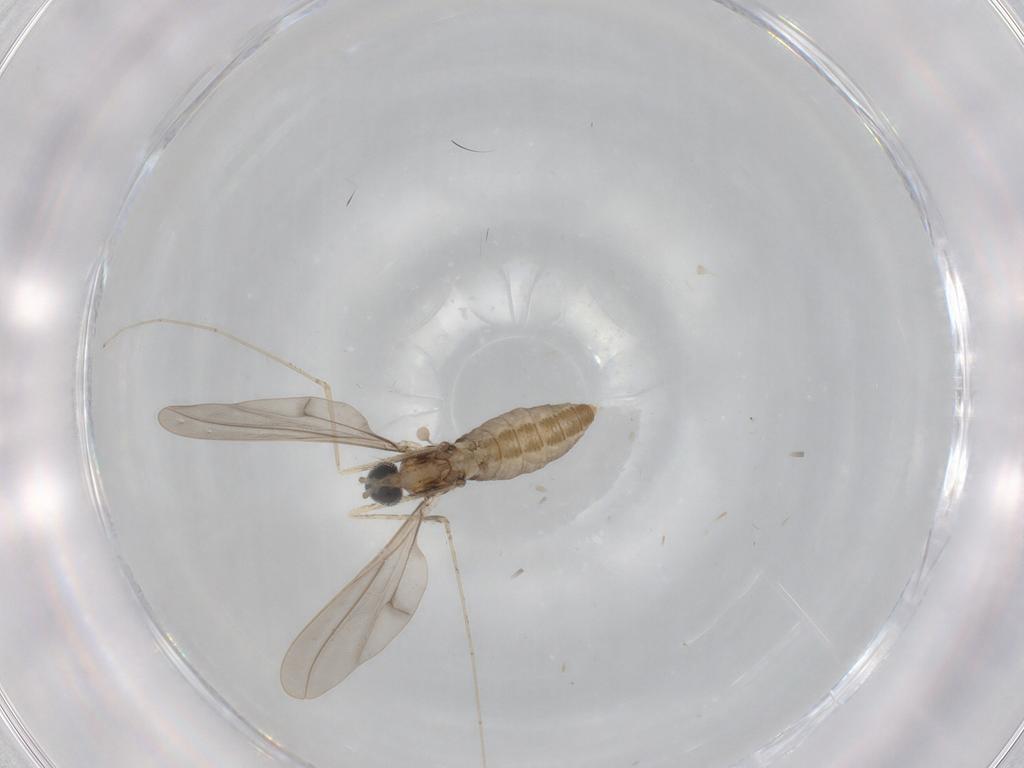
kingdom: Animalia
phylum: Arthropoda
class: Insecta
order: Diptera
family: Cecidomyiidae
